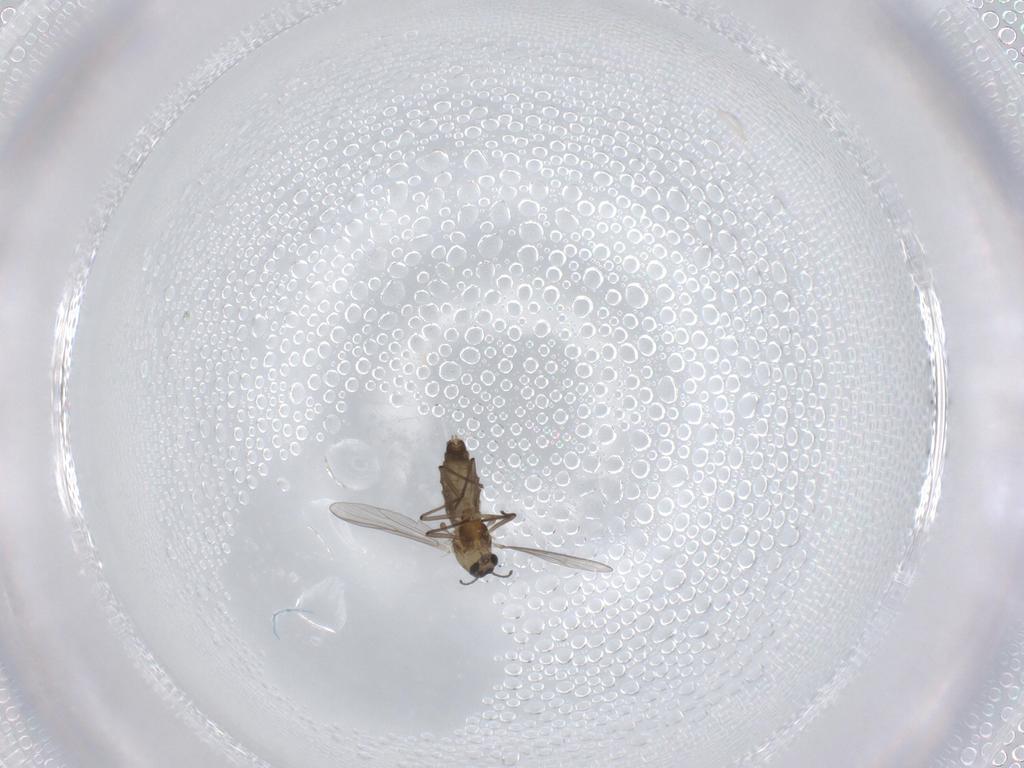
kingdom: Animalia
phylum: Arthropoda
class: Insecta
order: Diptera
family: Chironomidae
